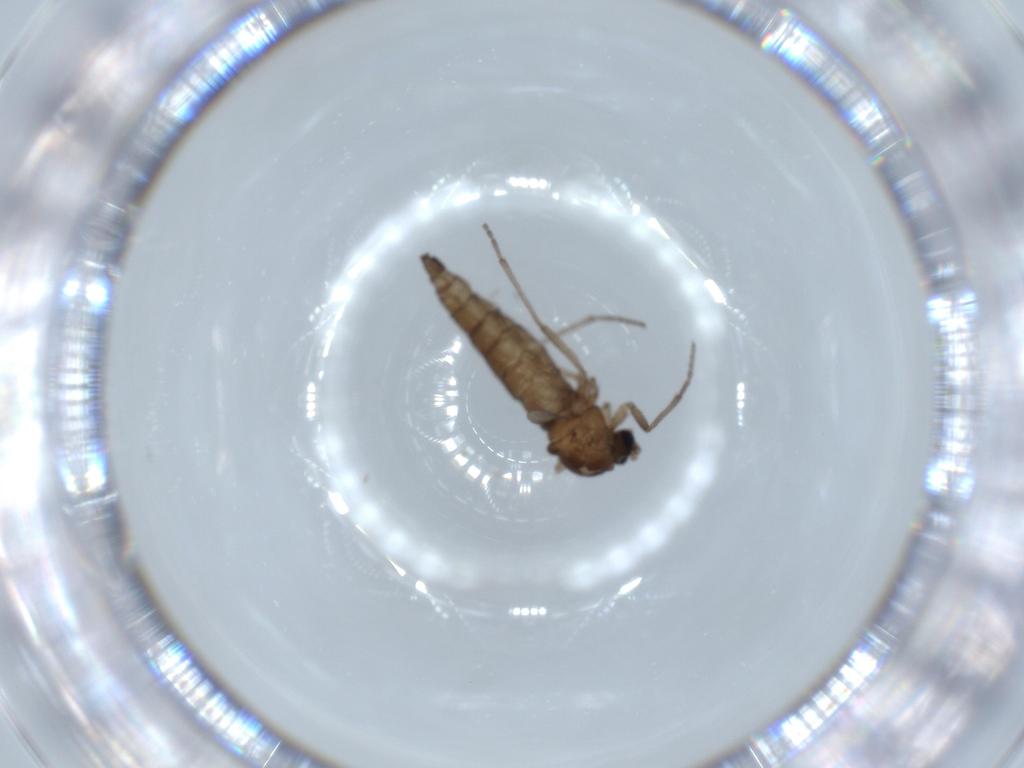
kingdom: Animalia
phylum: Arthropoda
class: Insecta
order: Diptera
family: Sciaridae
